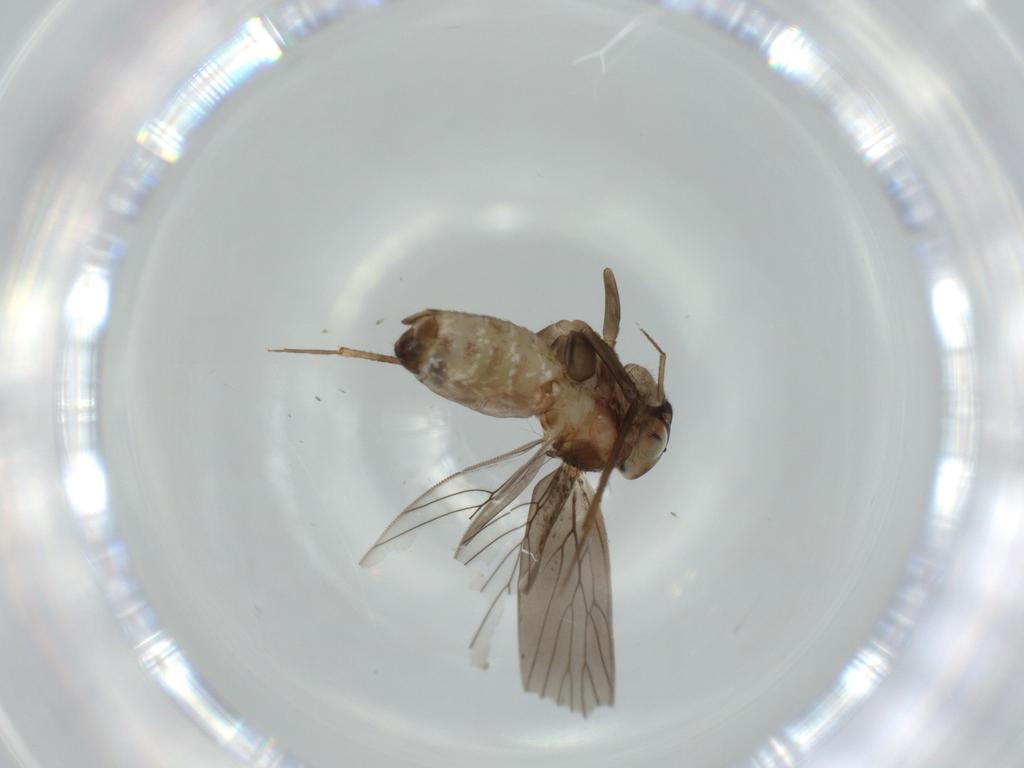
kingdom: Animalia
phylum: Arthropoda
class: Insecta
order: Psocodea
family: Lepidopsocidae
